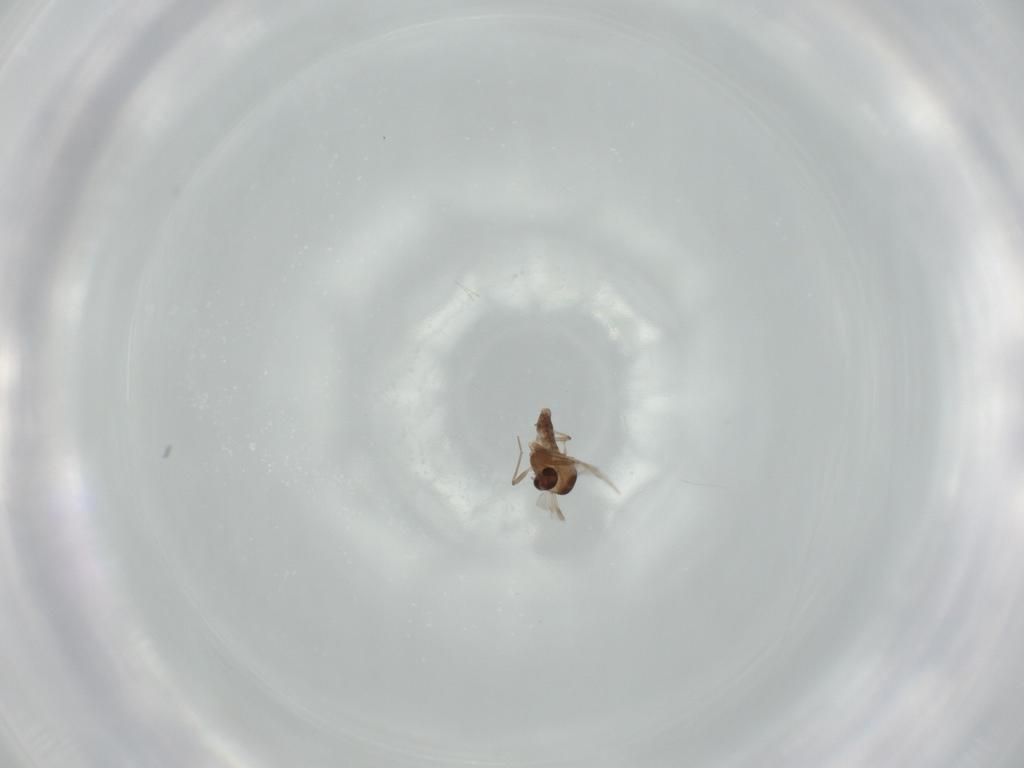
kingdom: Animalia
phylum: Arthropoda
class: Insecta
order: Diptera
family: Chironomidae
